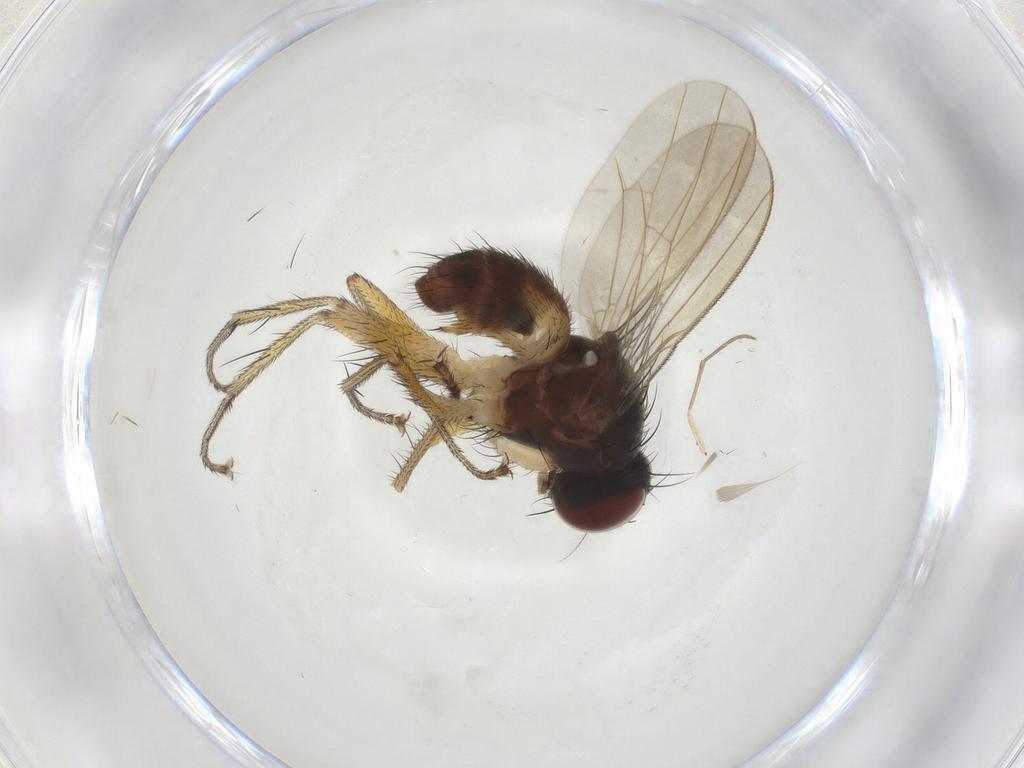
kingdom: Animalia
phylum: Arthropoda
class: Insecta
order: Diptera
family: Muscidae
